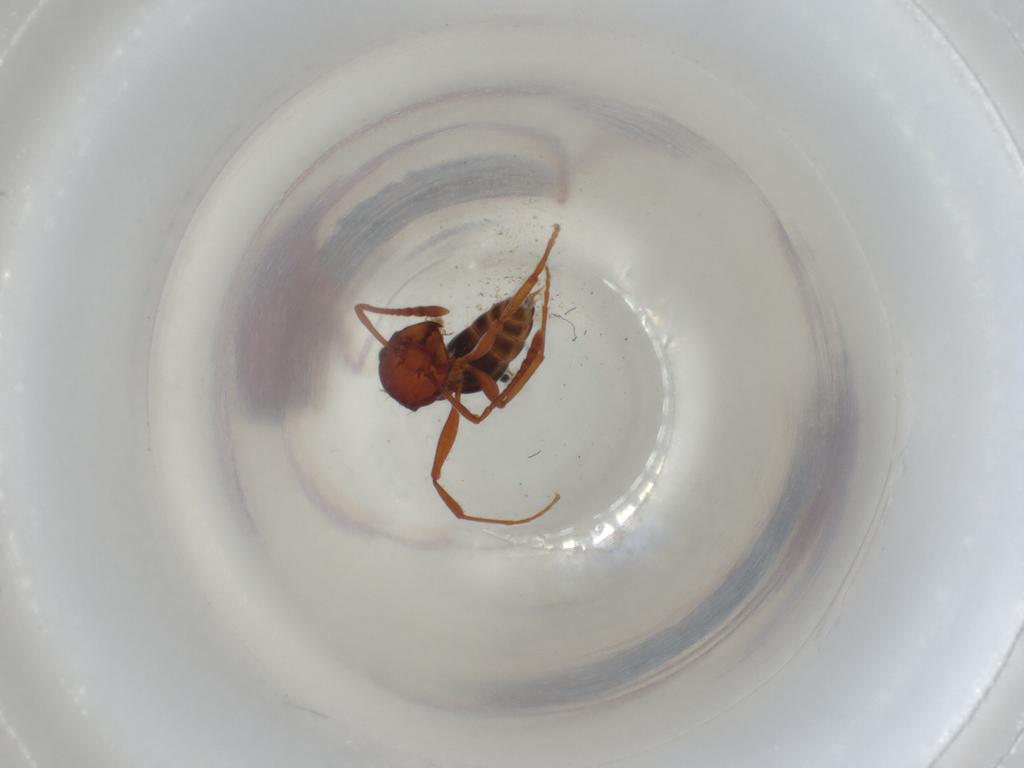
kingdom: Animalia
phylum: Arthropoda
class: Insecta
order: Hymenoptera
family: Formicidae
